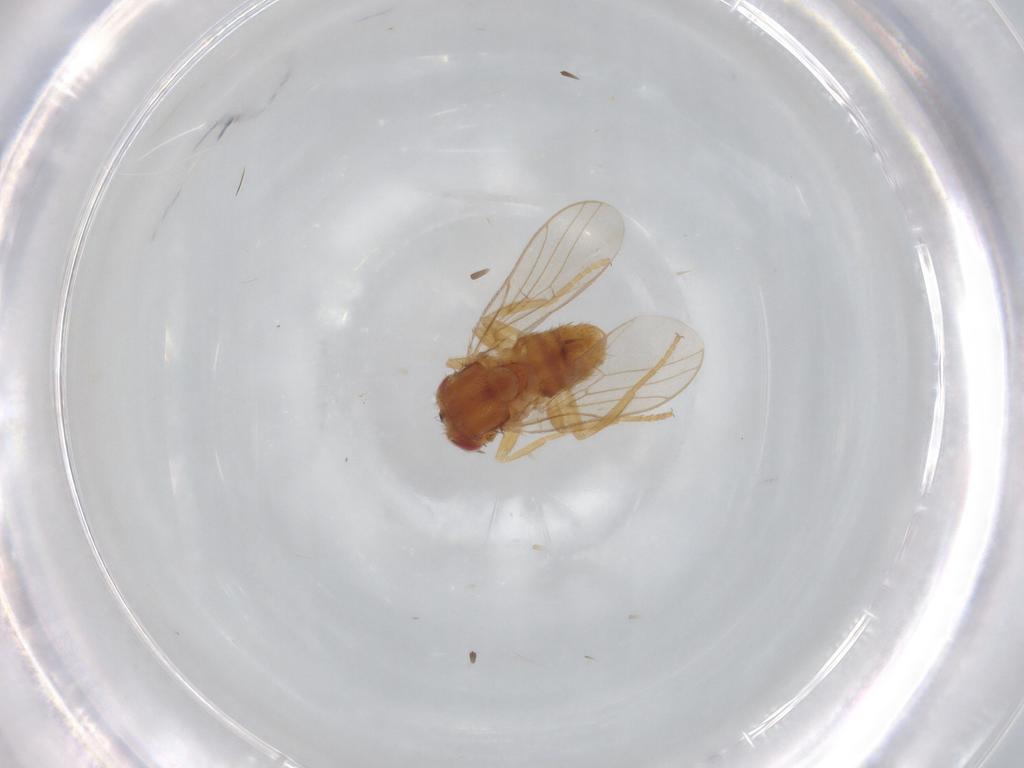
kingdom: Animalia
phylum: Arthropoda
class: Insecta
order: Diptera
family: Chloropidae
